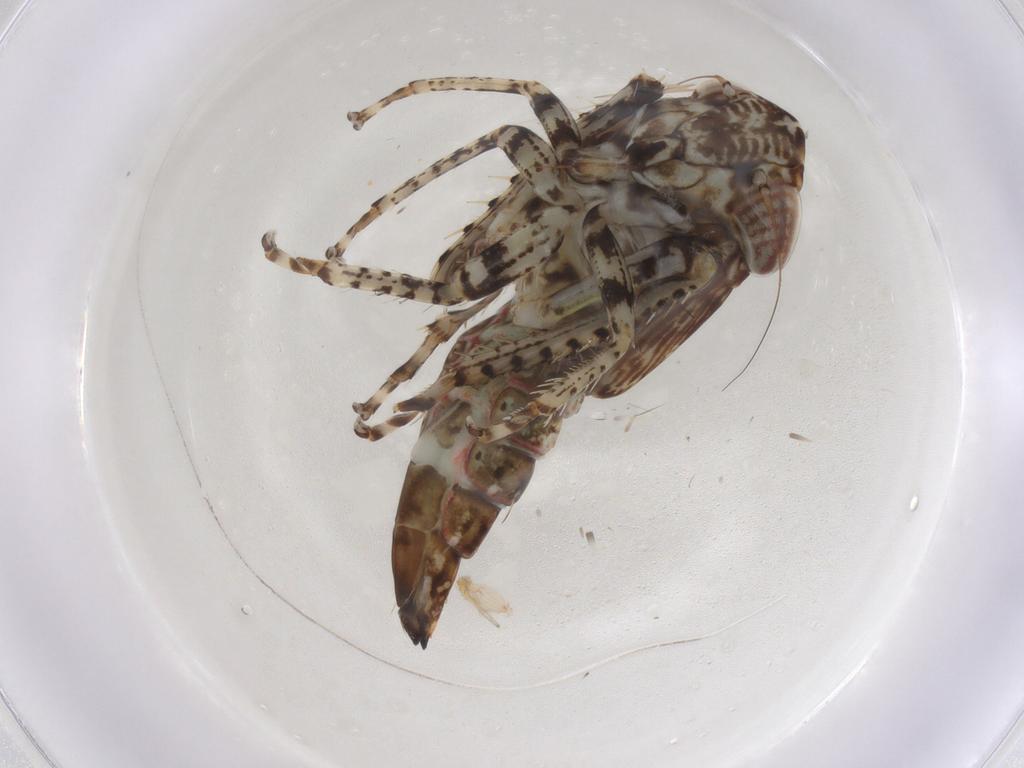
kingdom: Animalia
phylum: Arthropoda
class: Insecta
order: Hemiptera
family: Cicadellidae
